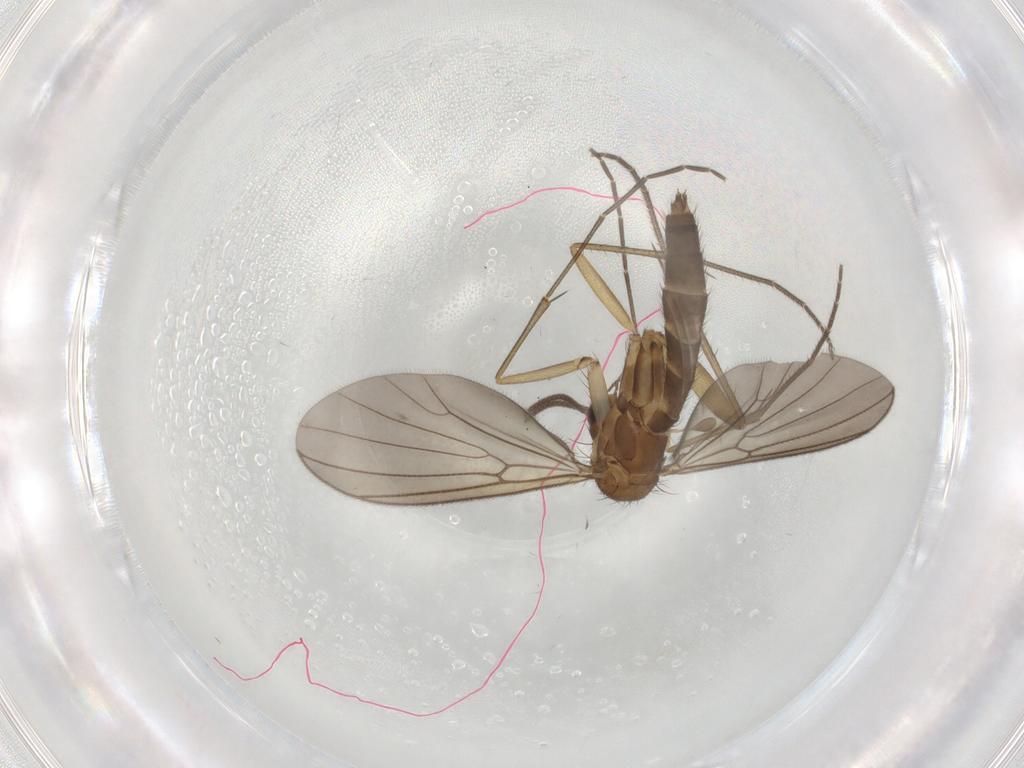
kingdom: Animalia
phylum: Arthropoda
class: Insecta
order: Diptera
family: Mycetophilidae
